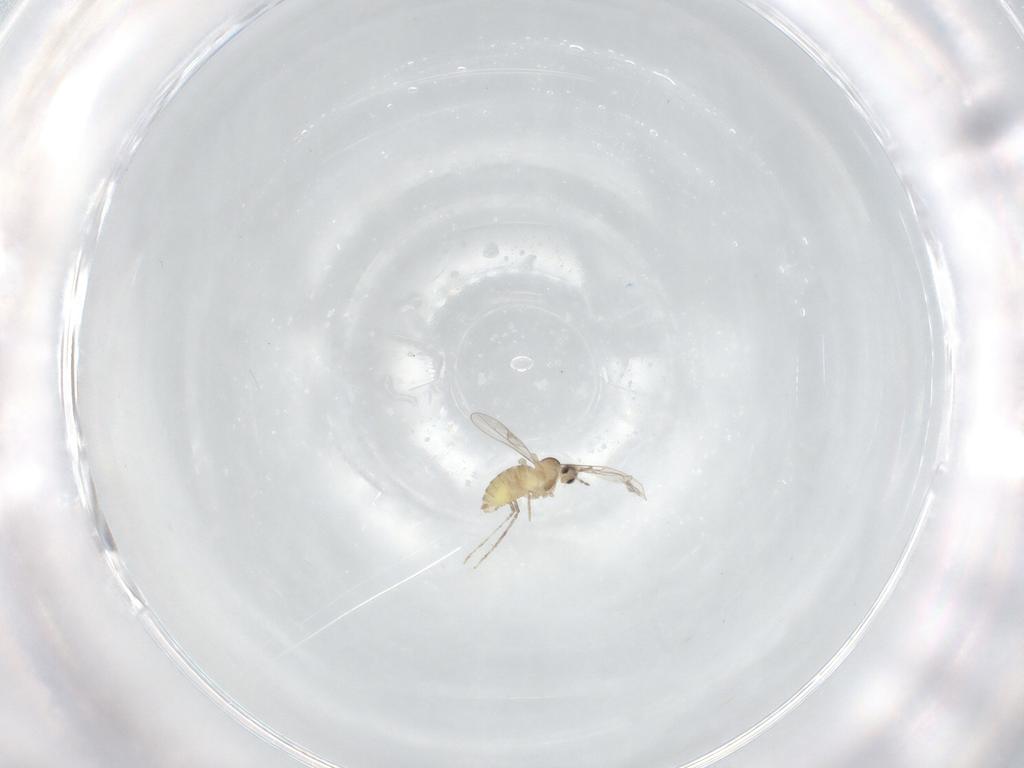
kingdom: Animalia
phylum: Arthropoda
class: Insecta
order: Diptera
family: Cecidomyiidae
